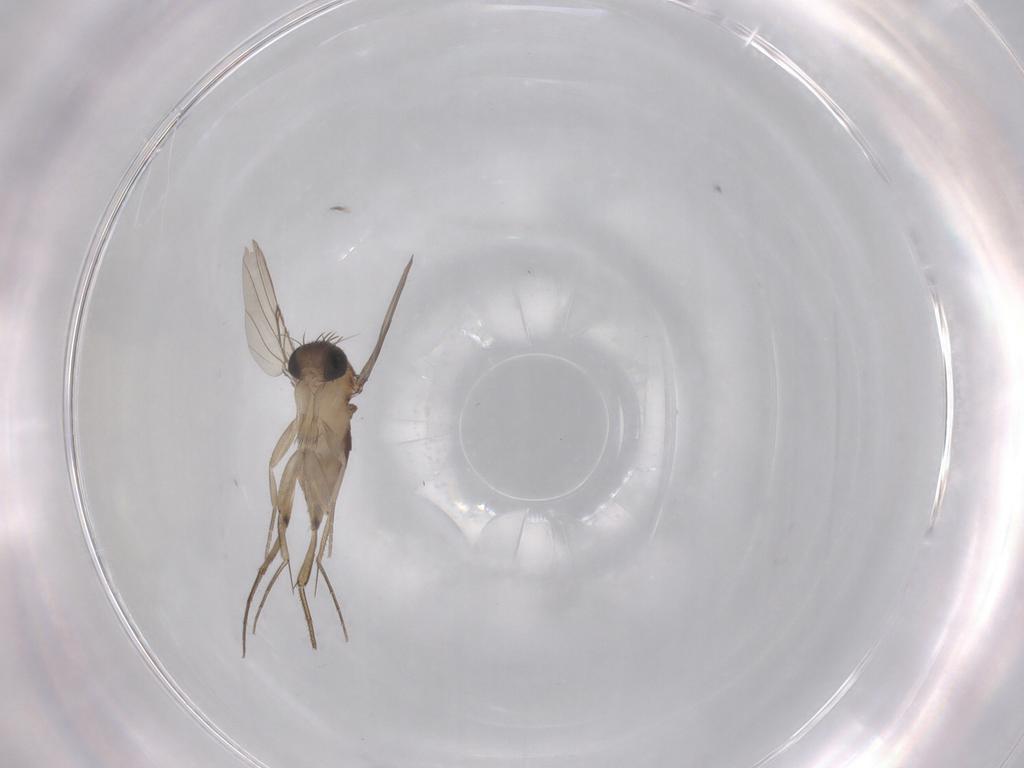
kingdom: Animalia
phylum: Arthropoda
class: Insecta
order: Diptera
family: Phoridae
